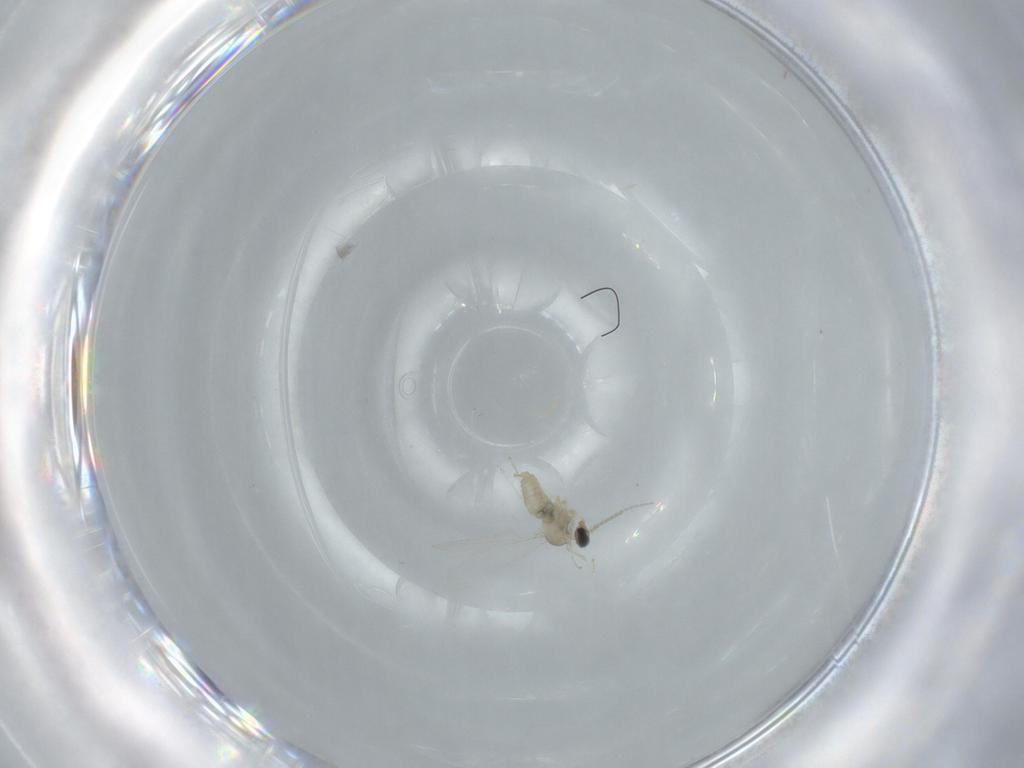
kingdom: Animalia
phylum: Arthropoda
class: Insecta
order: Diptera
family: Cecidomyiidae
